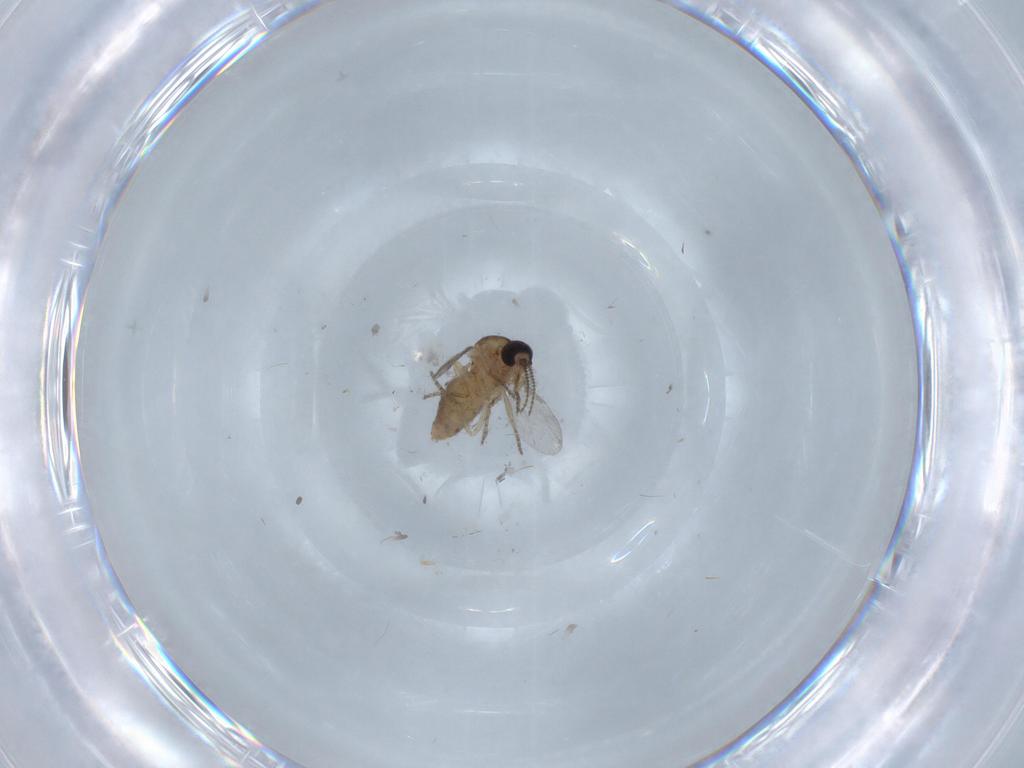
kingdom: Animalia
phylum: Arthropoda
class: Insecta
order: Diptera
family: Ceratopogonidae
